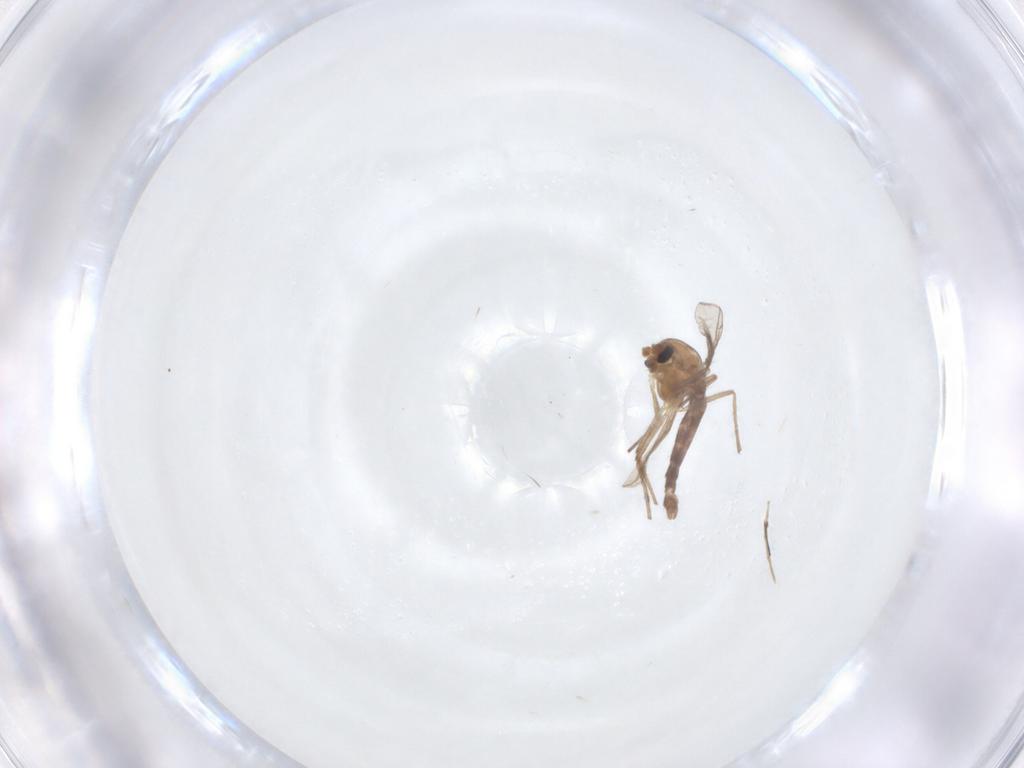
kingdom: Animalia
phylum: Arthropoda
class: Insecta
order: Diptera
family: Chironomidae
